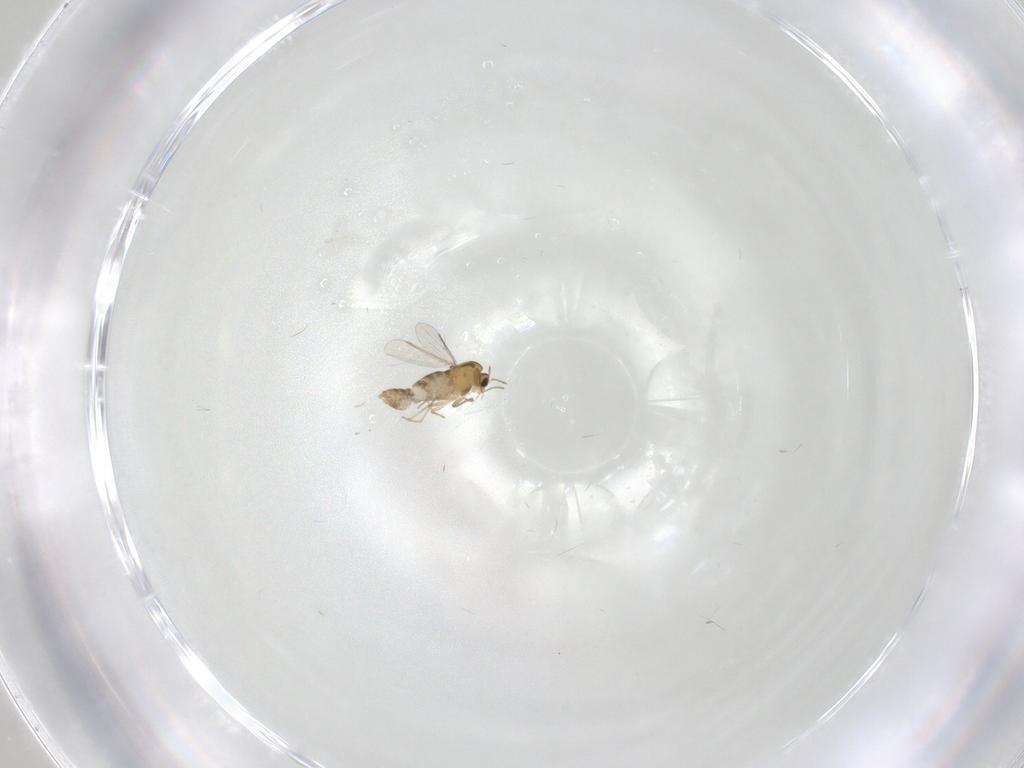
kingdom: Animalia
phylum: Arthropoda
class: Insecta
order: Diptera
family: Chironomidae
